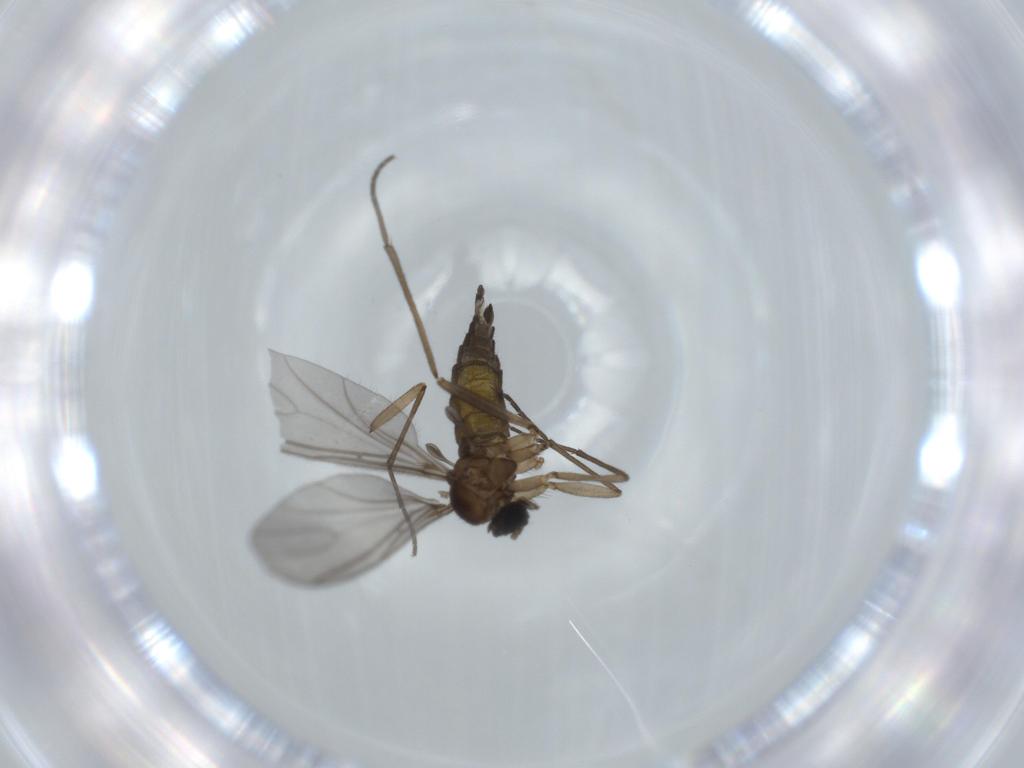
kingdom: Animalia
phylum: Arthropoda
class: Insecta
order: Diptera
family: Sciaridae
